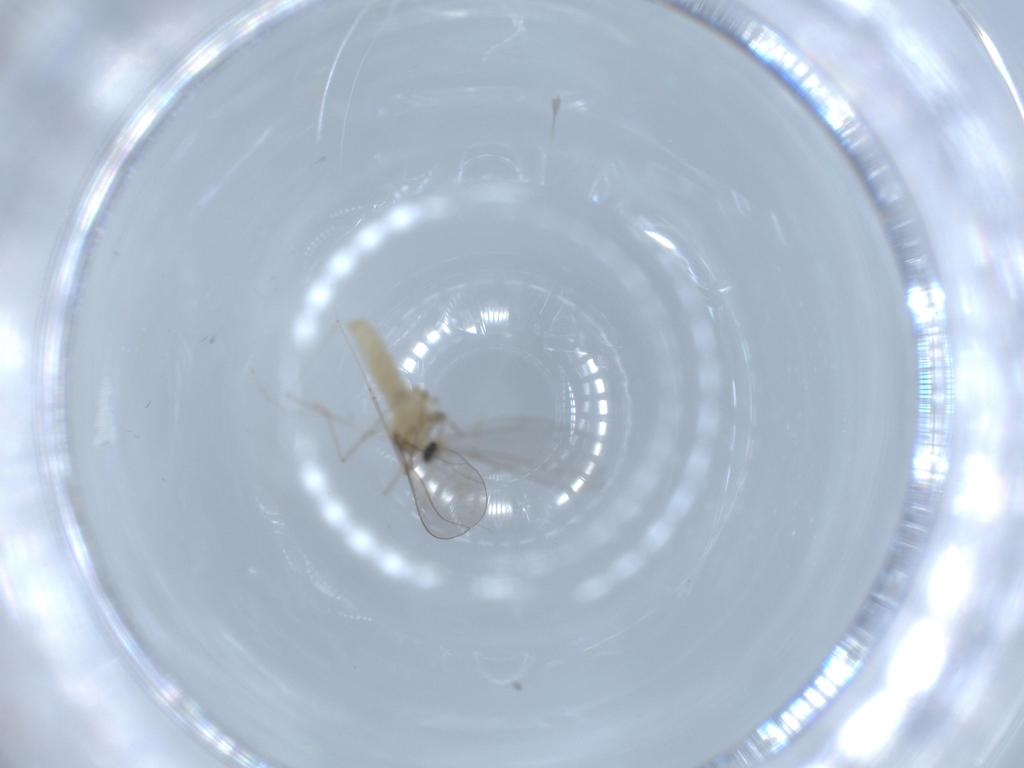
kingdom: Animalia
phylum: Arthropoda
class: Insecta
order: Diptera
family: Cecidomyiidae
